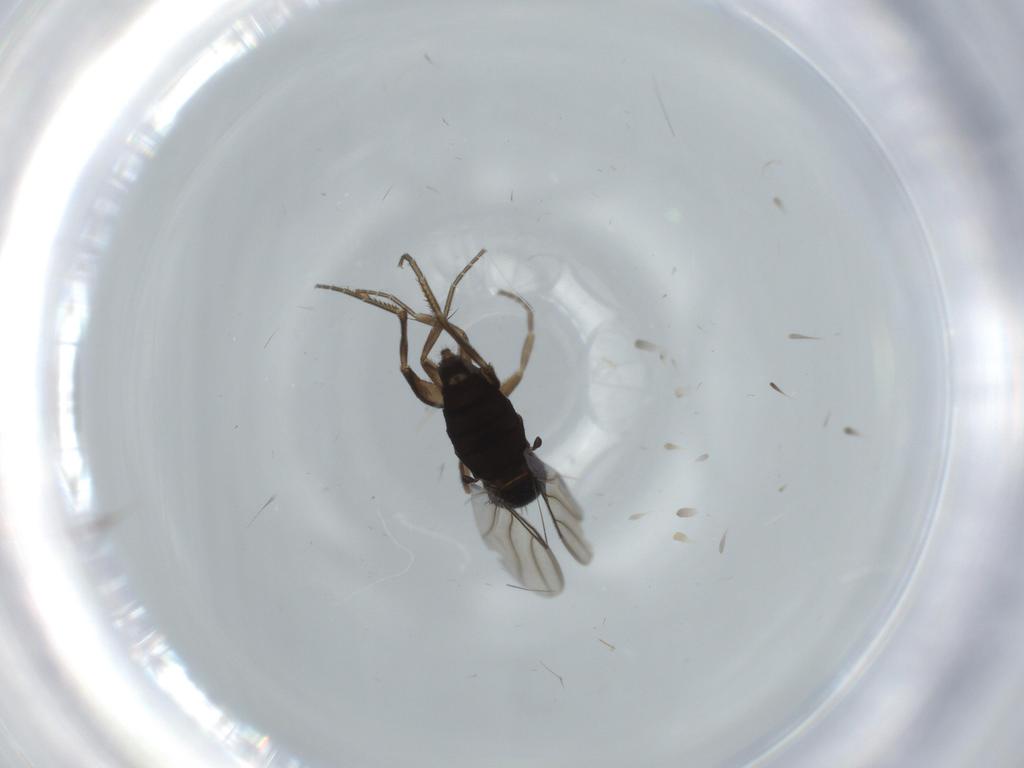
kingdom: Animalia
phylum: Arthropoda
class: Insecta
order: Diptera
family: Phoridae
